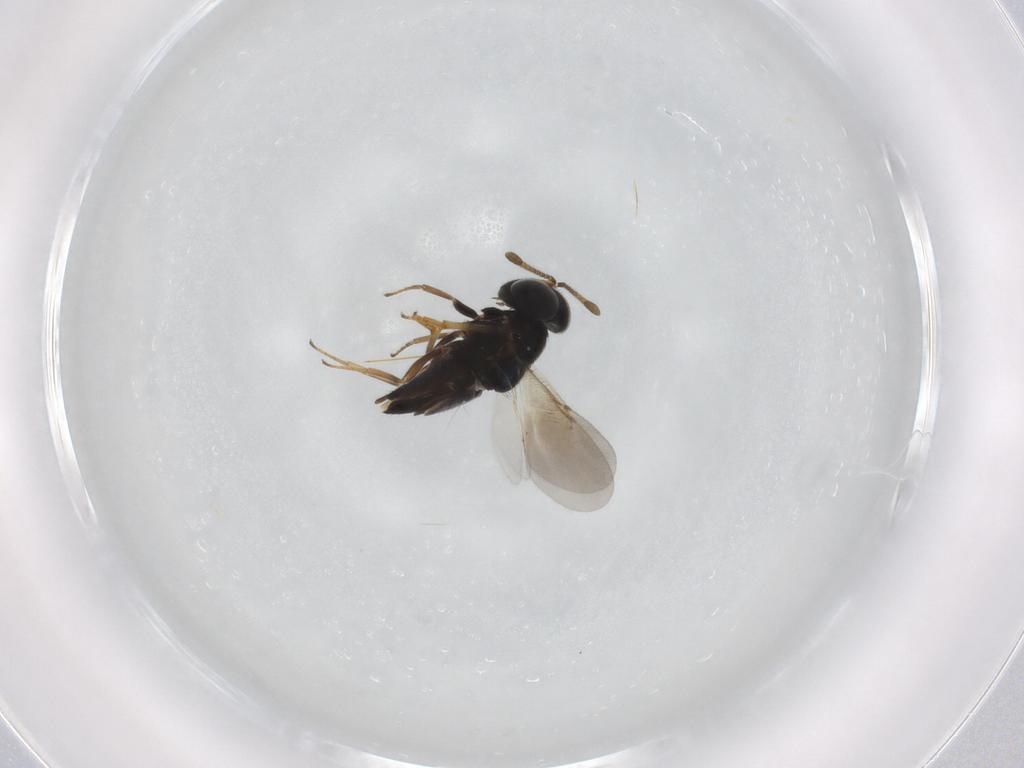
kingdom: Animalia
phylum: Arthropoda
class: Insecta
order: Hymenoptera
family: Encyrtidae
